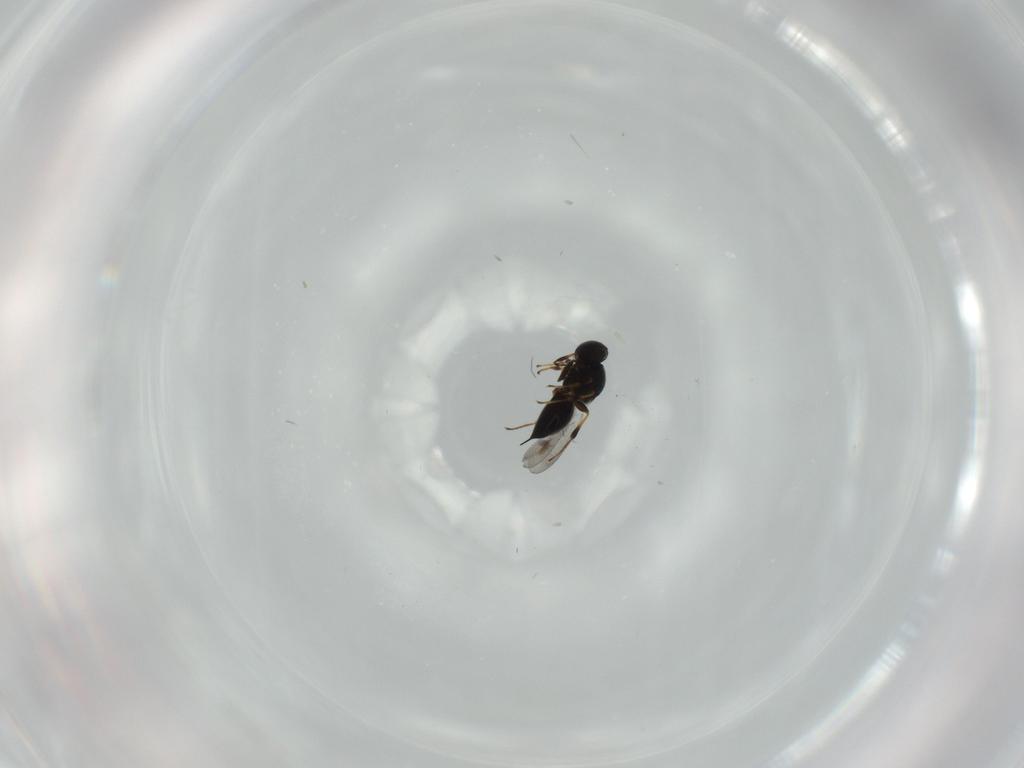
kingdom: Animalia
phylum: Arthropoda
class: Insecta
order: Hymenoptera
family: Platygastridae
